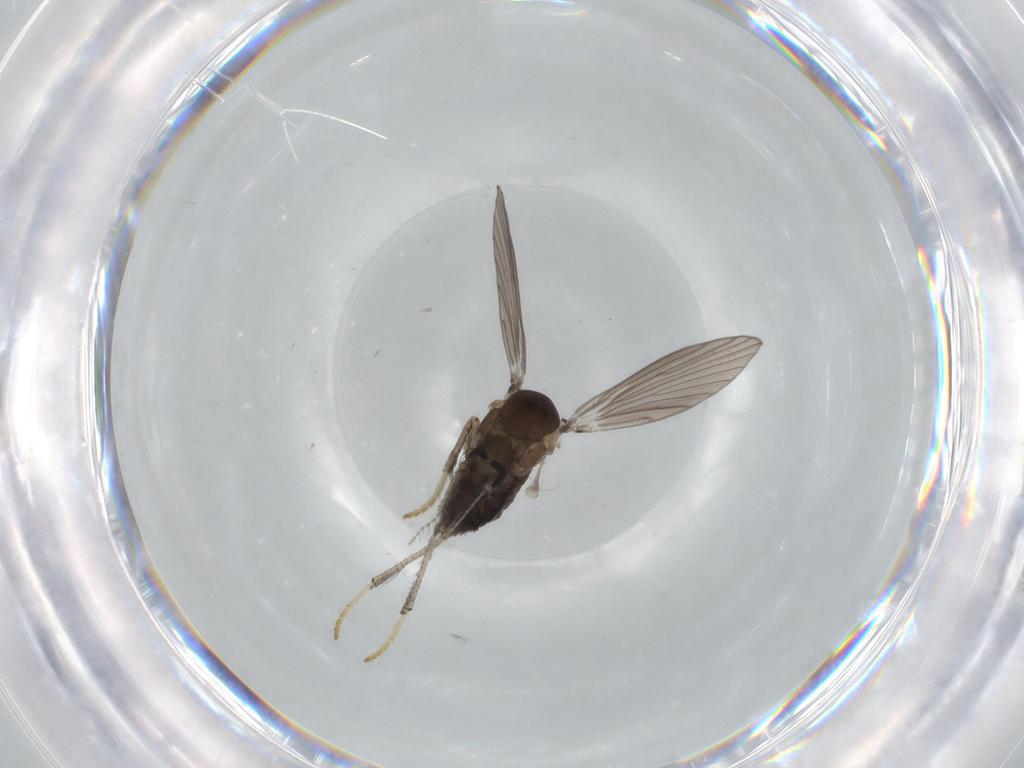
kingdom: Animalia
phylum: Arthropoda
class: Insecta
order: Diptera
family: Psychodidae
